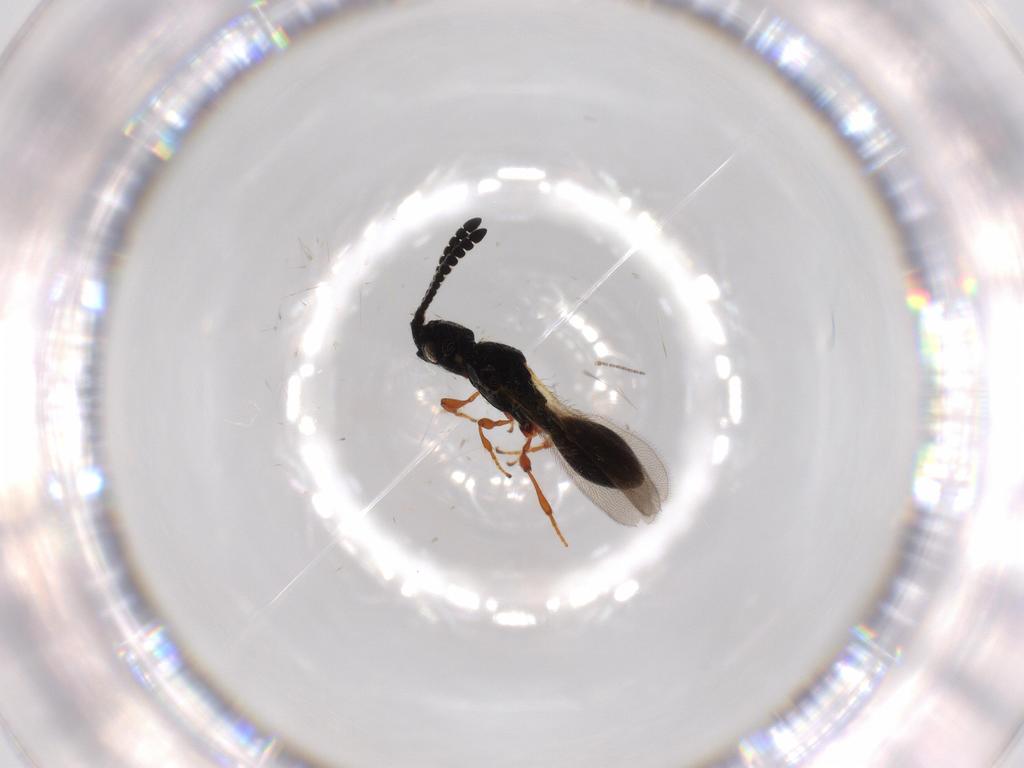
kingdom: Animalia
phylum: Arthropoda
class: Insecta
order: Hymenoptera
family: Diapriidae
